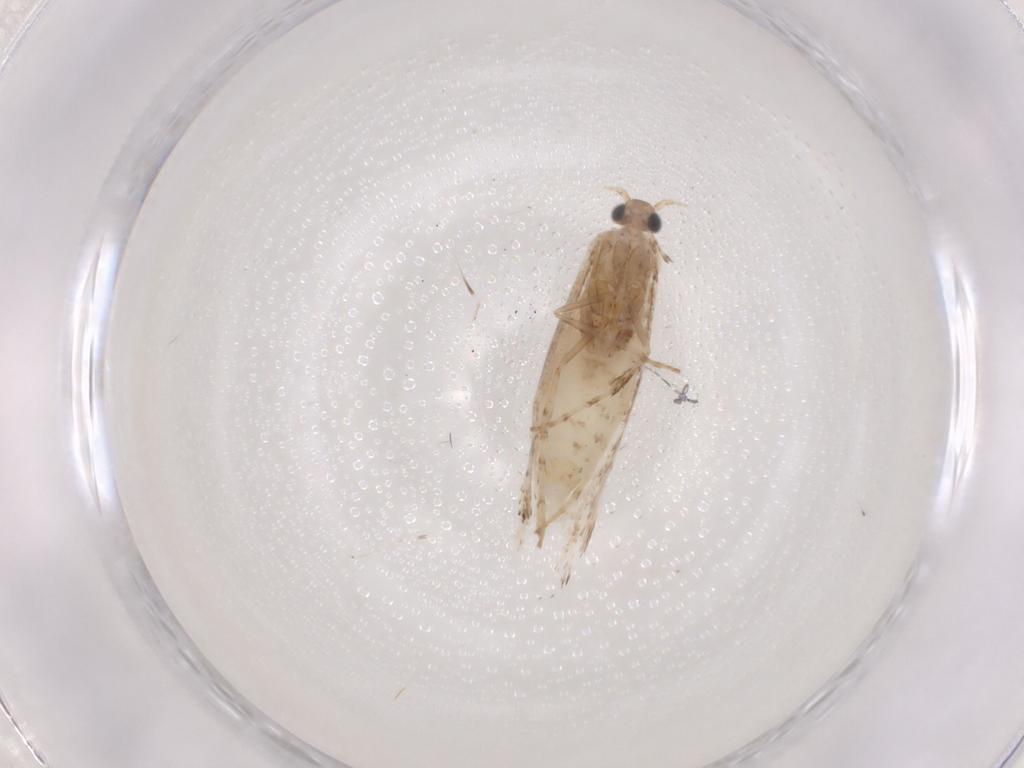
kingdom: Animalia
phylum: Arthropoda
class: Insecta
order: Lepidoptera
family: Gracillariidae
